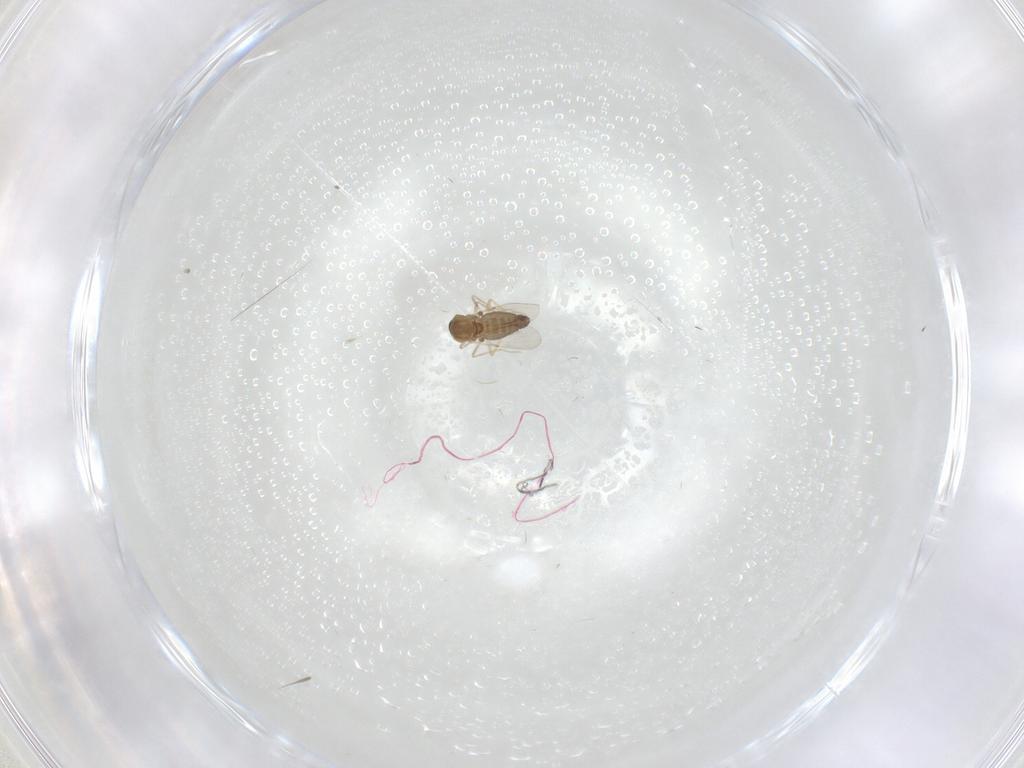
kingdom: Animalia
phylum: Arthropoda
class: Insecta
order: Diptera
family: Ceratopogonidae
